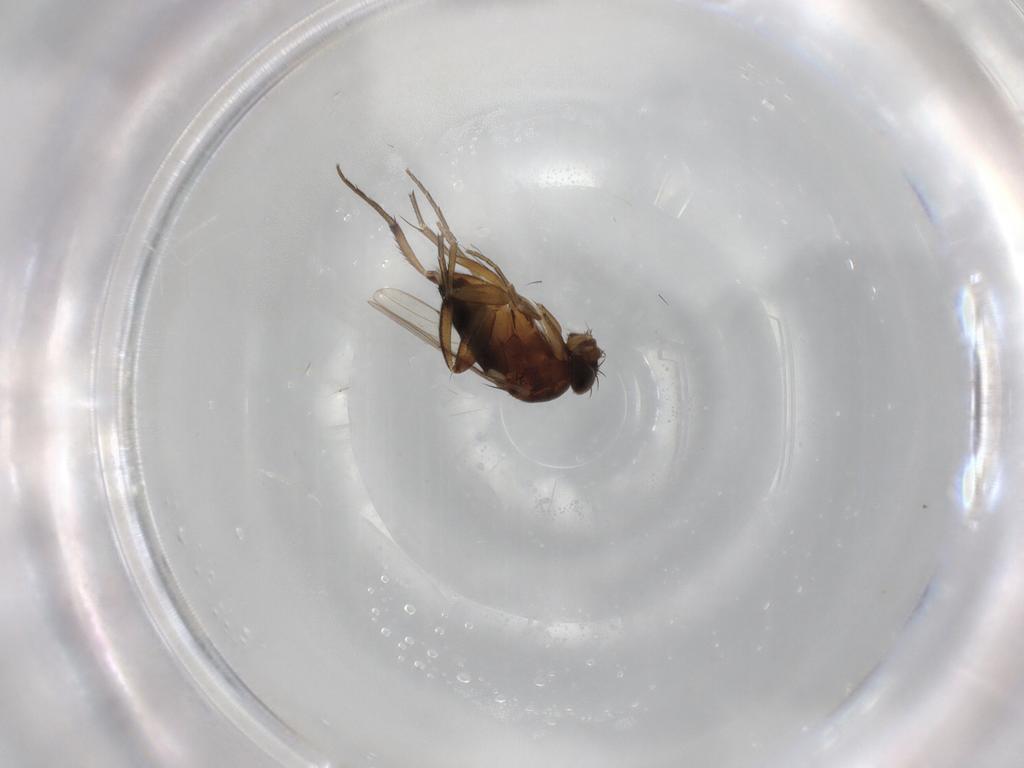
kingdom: Animalia
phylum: Arthropoda
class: Insecta
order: Diptera
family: Phoridae
